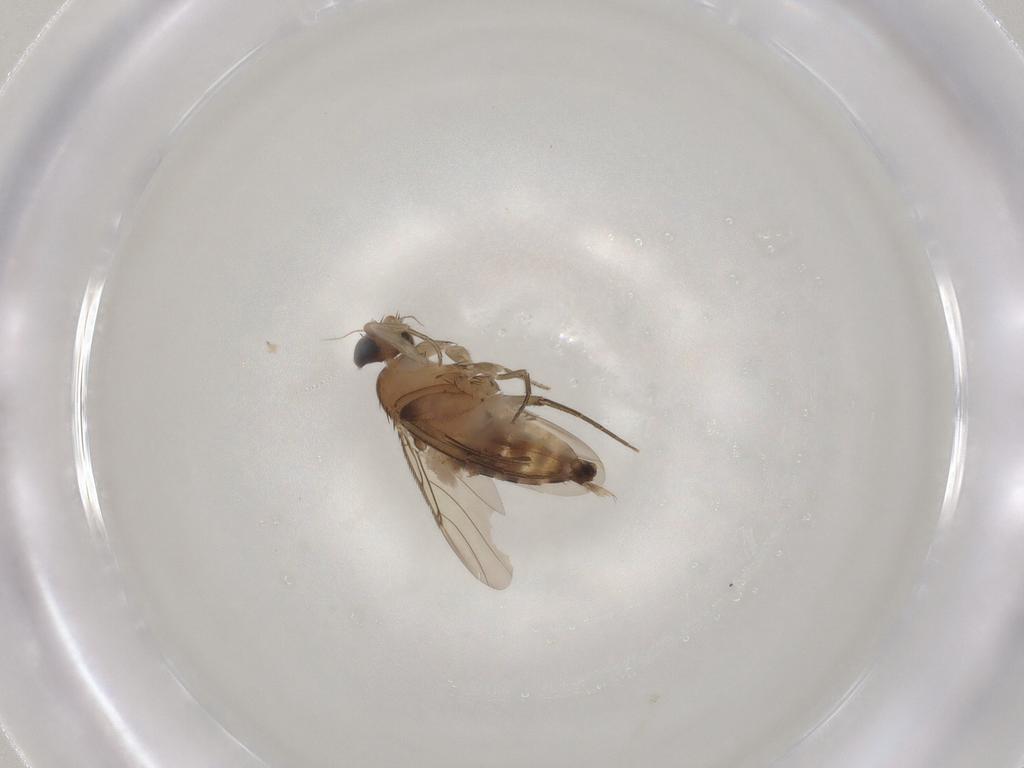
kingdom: Animalia
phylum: Arthropoda
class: Insecta
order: Diptera
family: Phoridae
